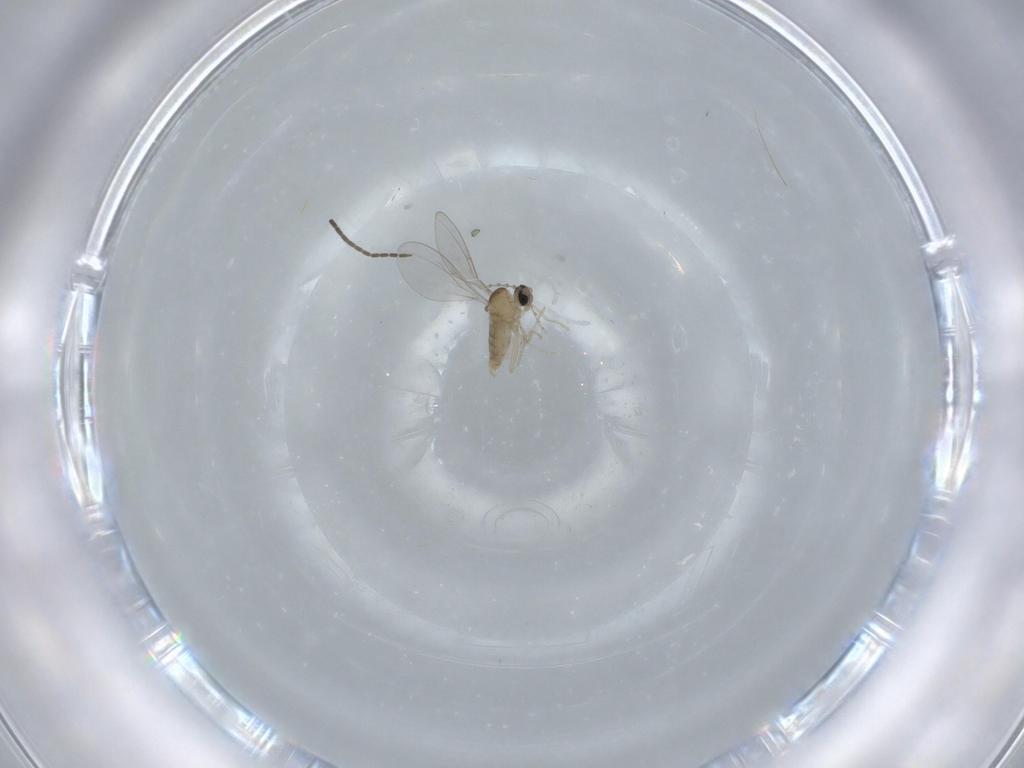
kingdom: Animalia
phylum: Arthropoda
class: Insecta
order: Diptera
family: Cecidomyiidae
